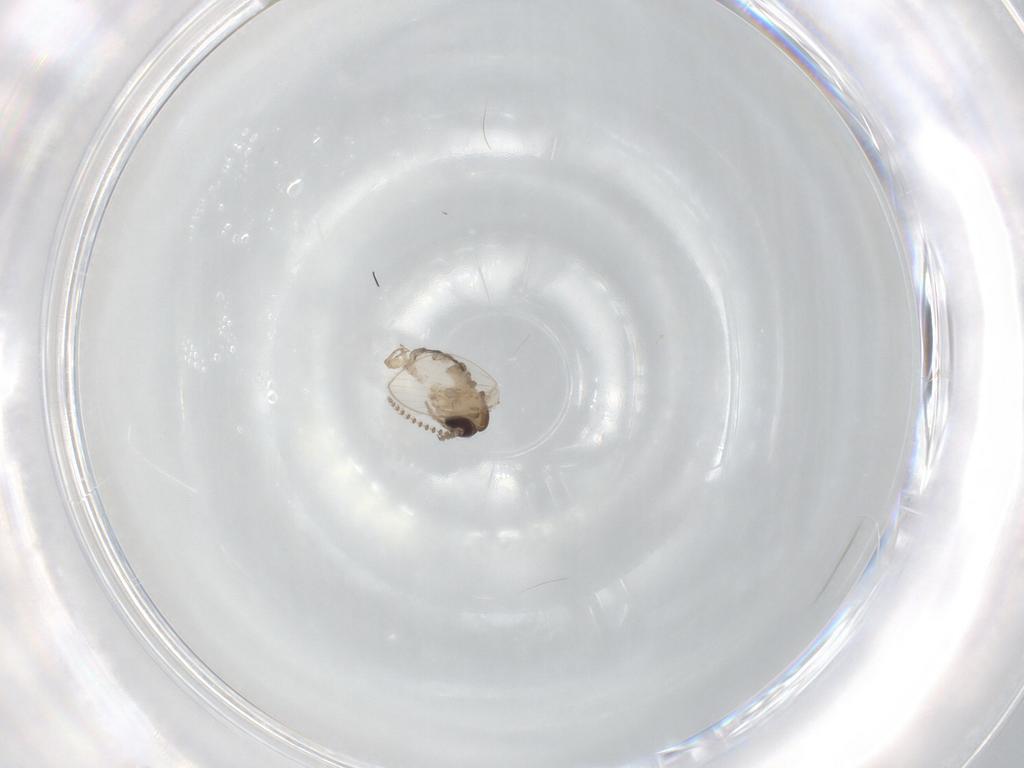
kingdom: Animalia
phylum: Arthropoda
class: Insecta
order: Diptera
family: Psychodidae
